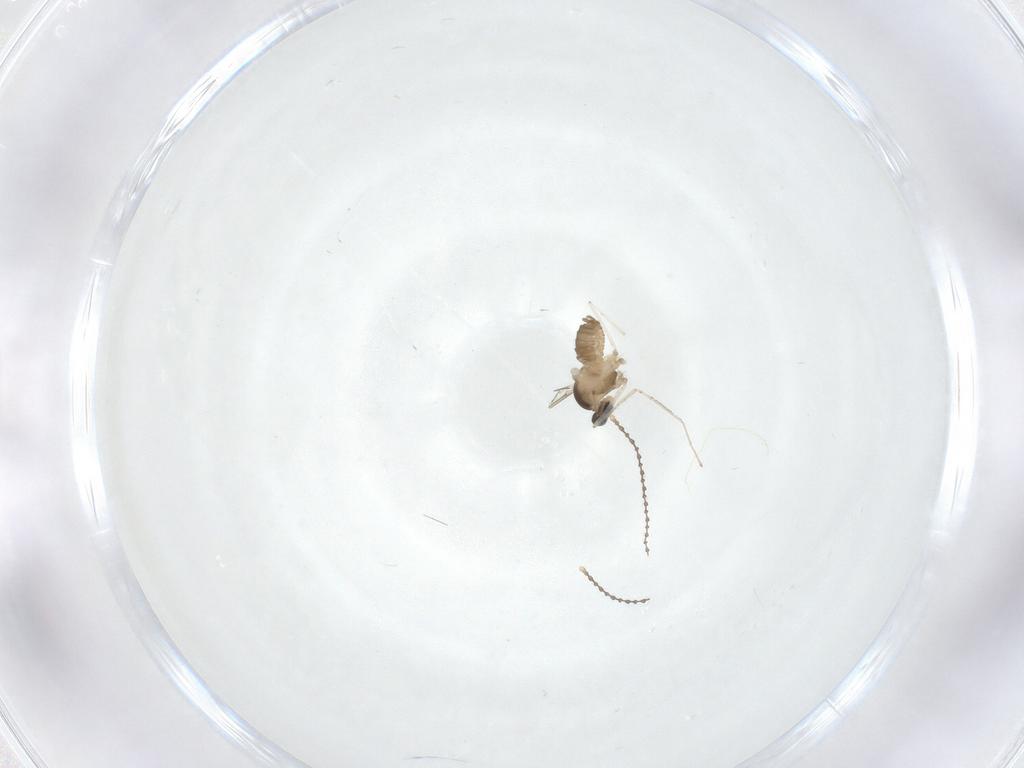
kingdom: Animalia
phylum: Arthropoda
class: Insecta
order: Diptera
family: Cecidomyiidae
